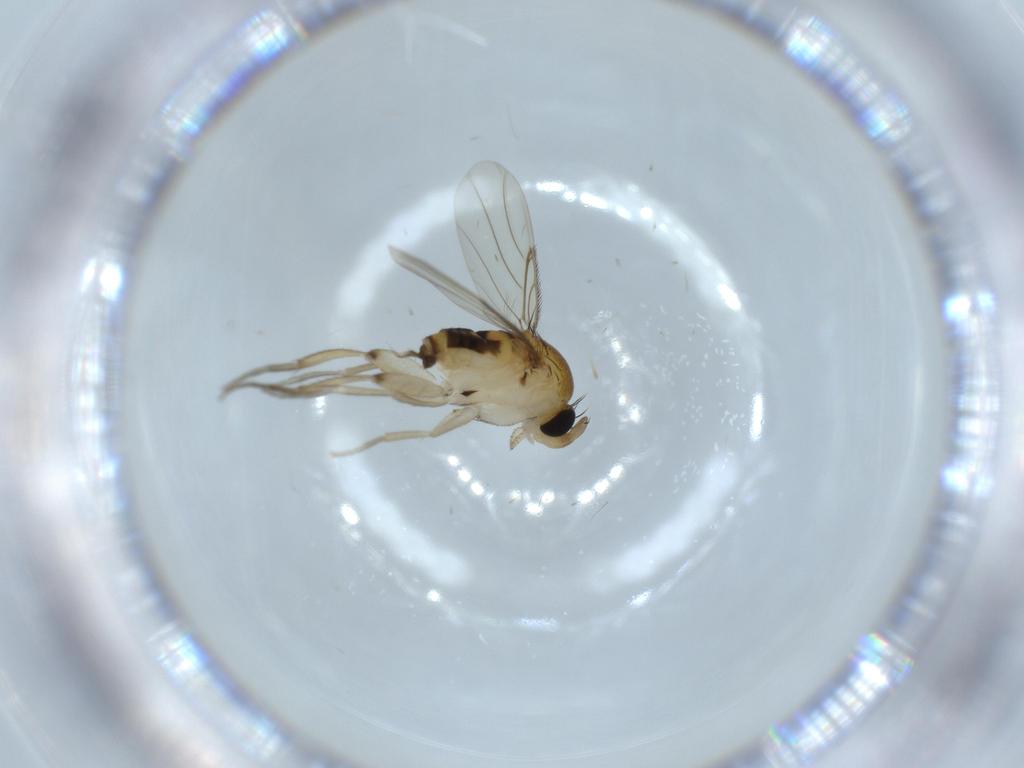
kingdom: Animalia
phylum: Arthropoda
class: Insecta
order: Diptera
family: Phoridae
